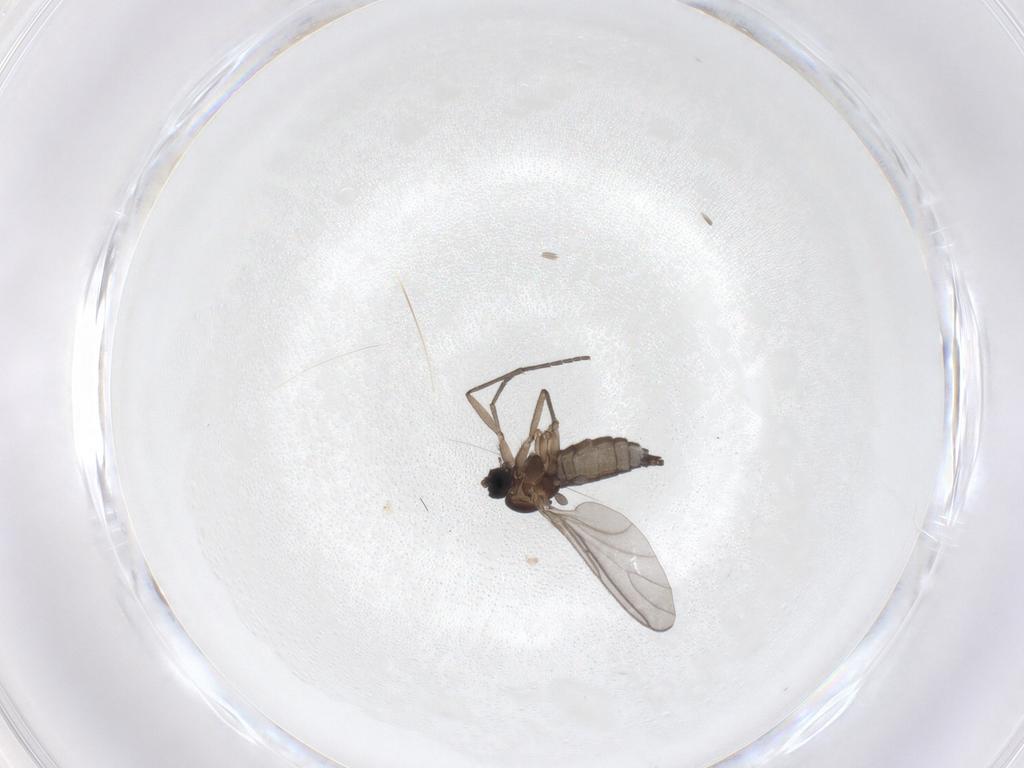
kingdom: Animalia
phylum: Arthropoda
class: Insecta
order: Diptera
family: Sciaridae
